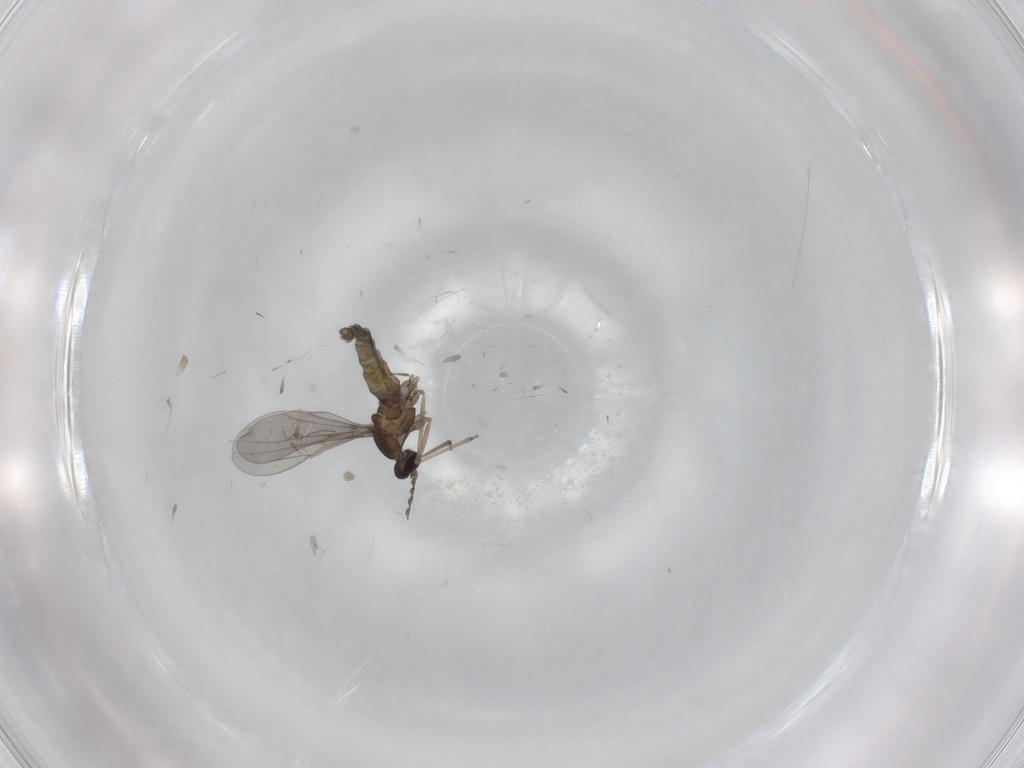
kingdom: Animalia
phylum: Arthropoda
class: Insecta
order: Diptera
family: Cecidomyiidae
